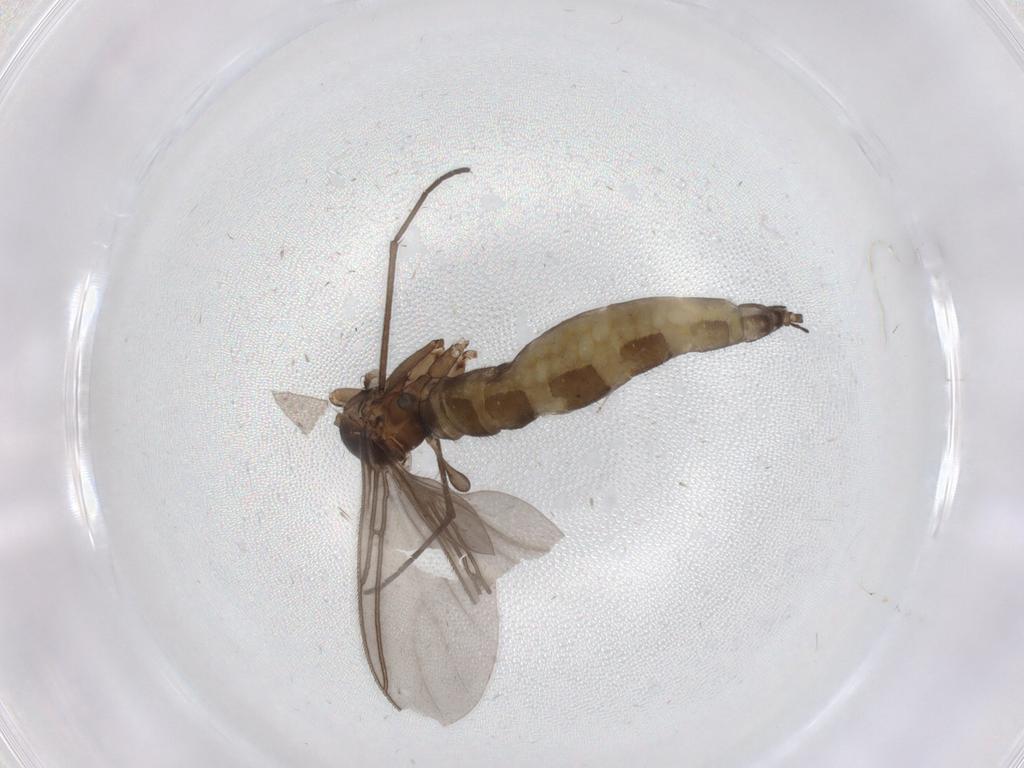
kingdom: Animalia
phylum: Arthropoda
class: Insecta
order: Diptera
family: Sciaridae
